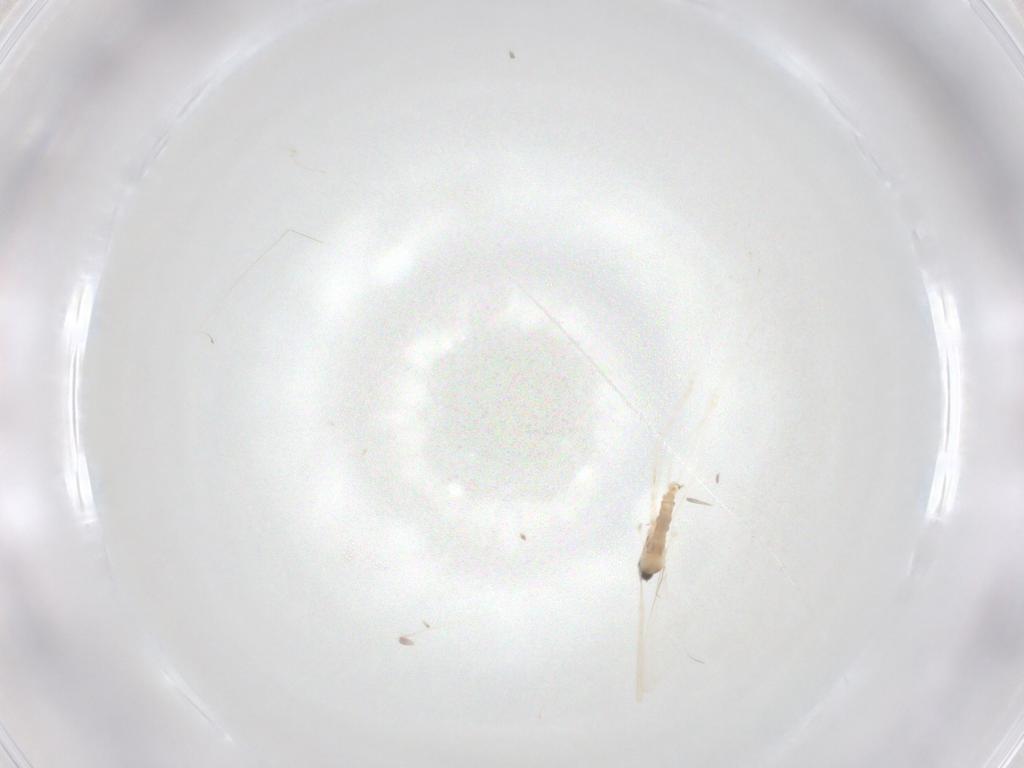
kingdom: Animalia
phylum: Arthropoda
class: Insecta
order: Diptera
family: Cecidomyiidae
